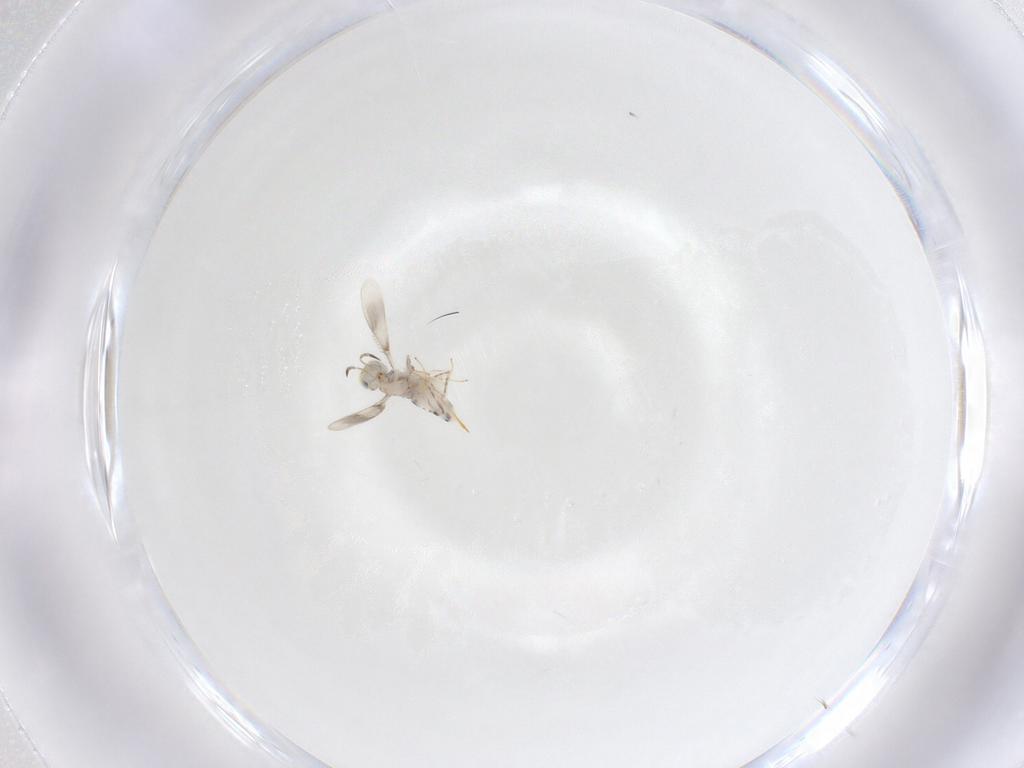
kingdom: Animalia
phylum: Arthropoda
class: Insecta
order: Hymenoptera
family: Aphelinidae
